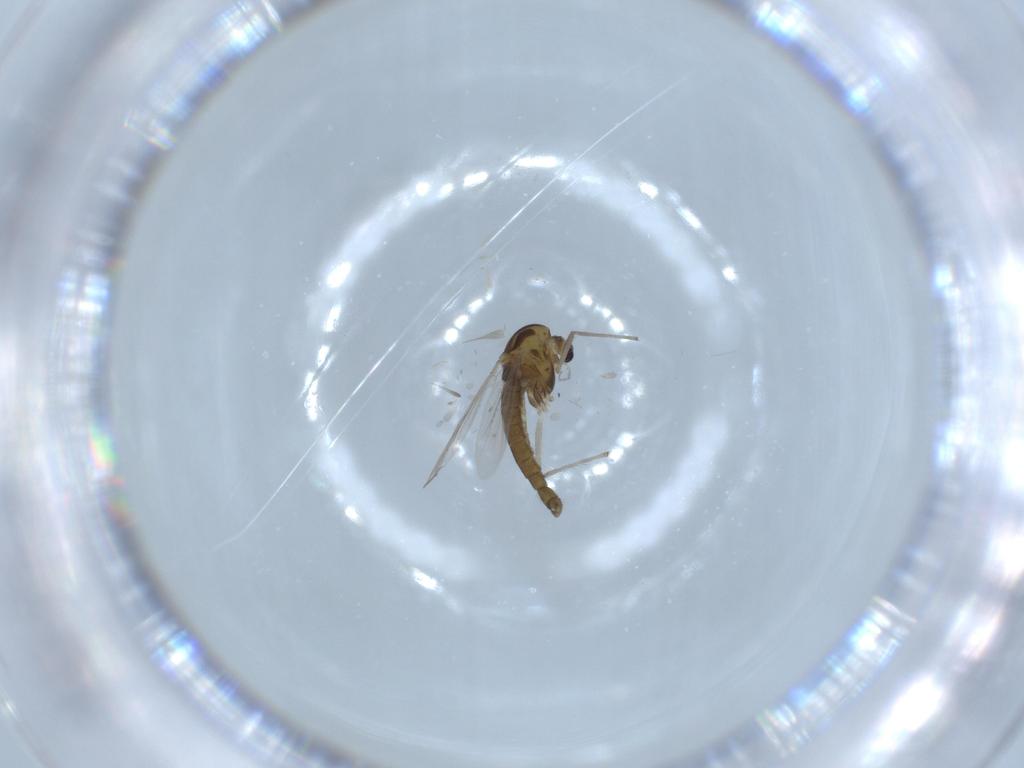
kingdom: Animalia
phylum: Arthropoda
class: Insecta
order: Diptera
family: Chironomidae
